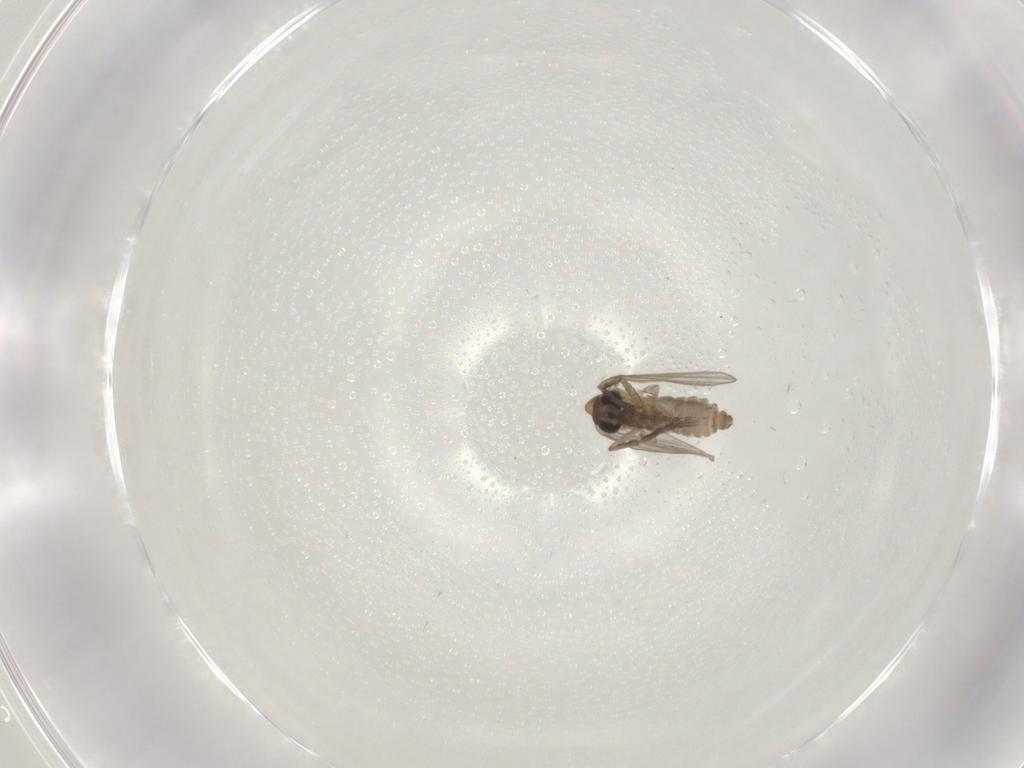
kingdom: Animalia
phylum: Arthropoda
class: Insecta
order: Diptera
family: Psychodidae
